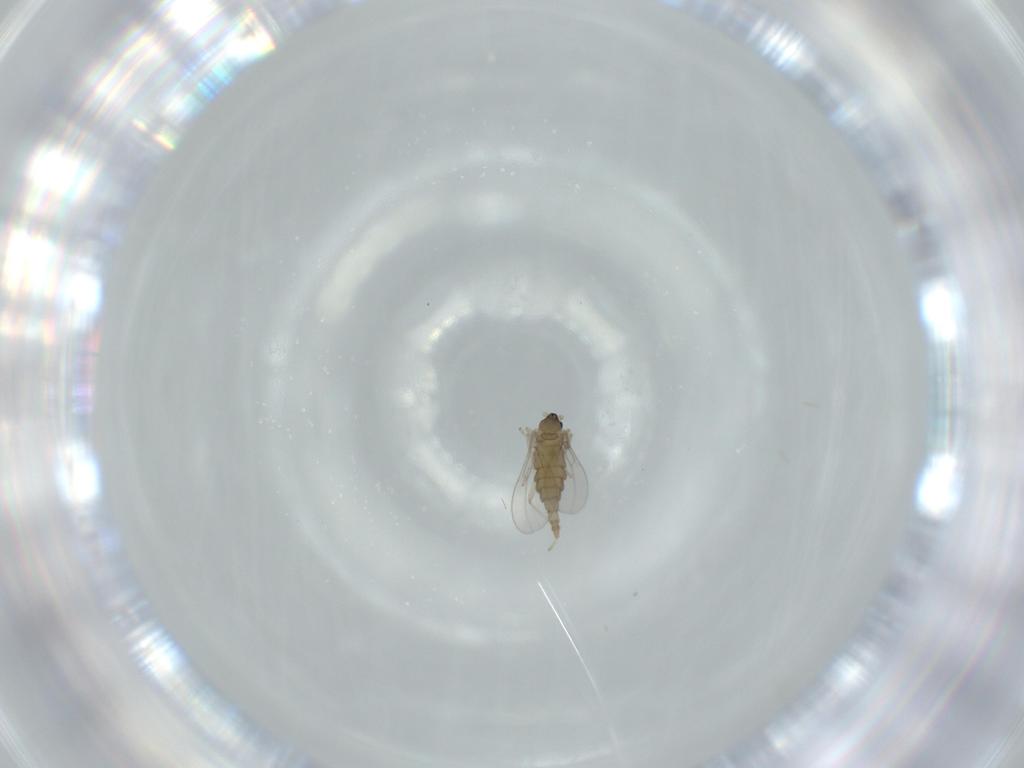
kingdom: Animalia
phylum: Arthropoda
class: Insecta
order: Diptera
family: Cecidomyiidae
